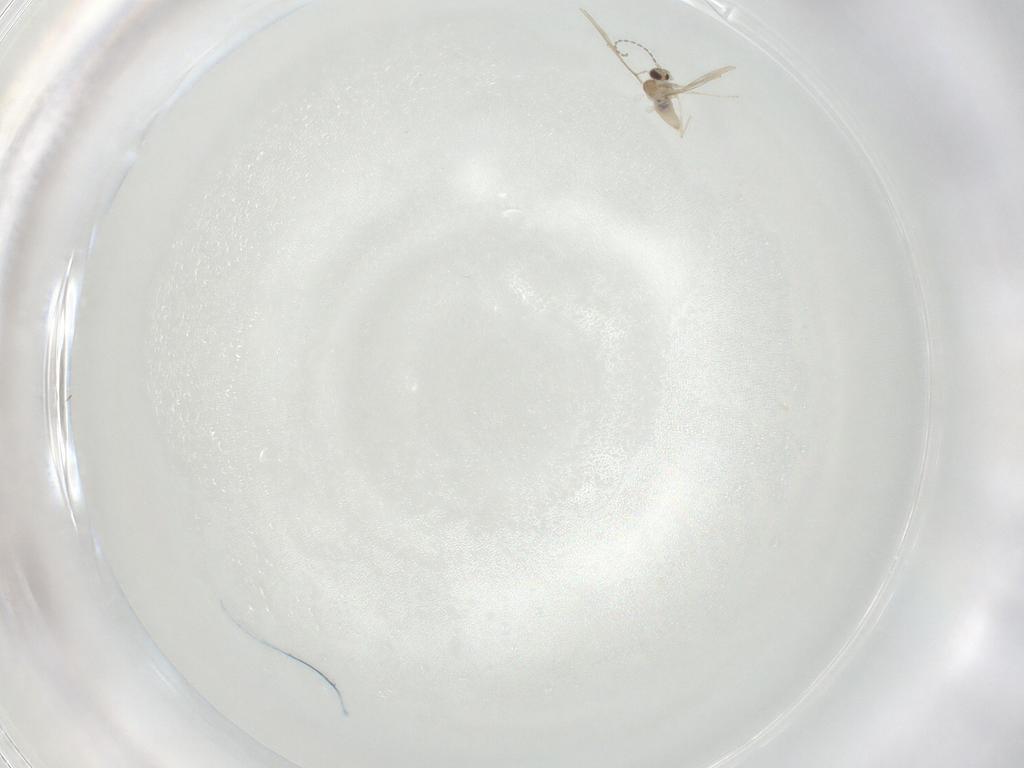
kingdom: Animalia
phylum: Arthropoda
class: Insecta
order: Diptera
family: Cecidomyiidae
